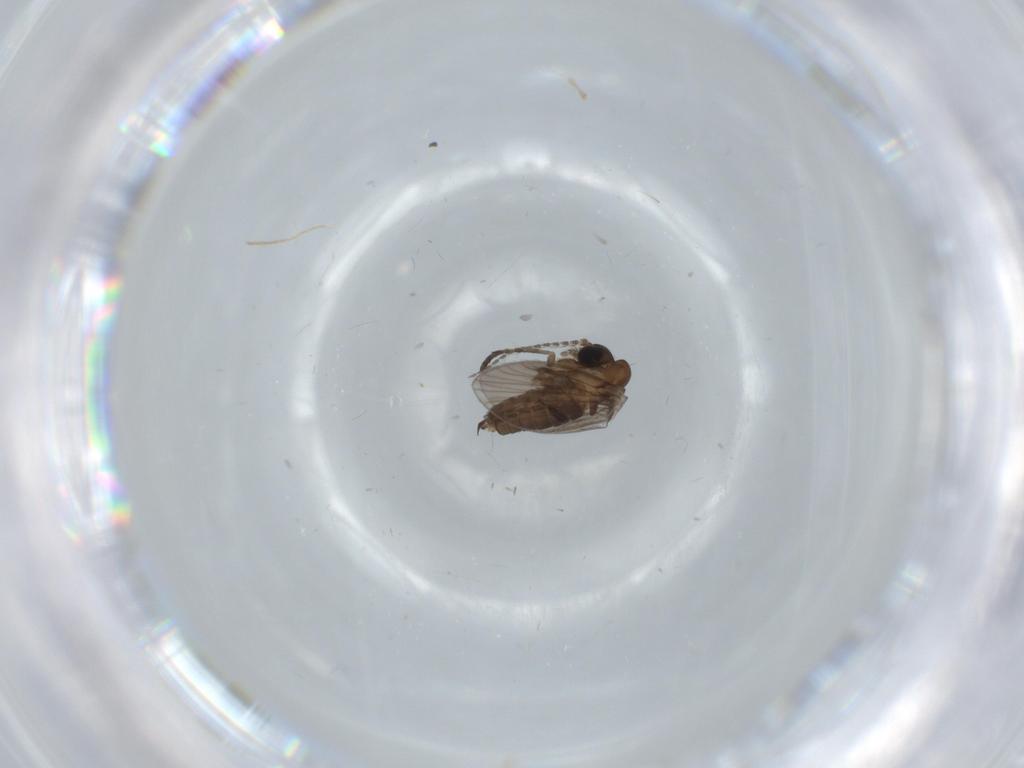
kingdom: Animalia
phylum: Arthropoda
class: Insecta
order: Diptera
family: Psychodidae
